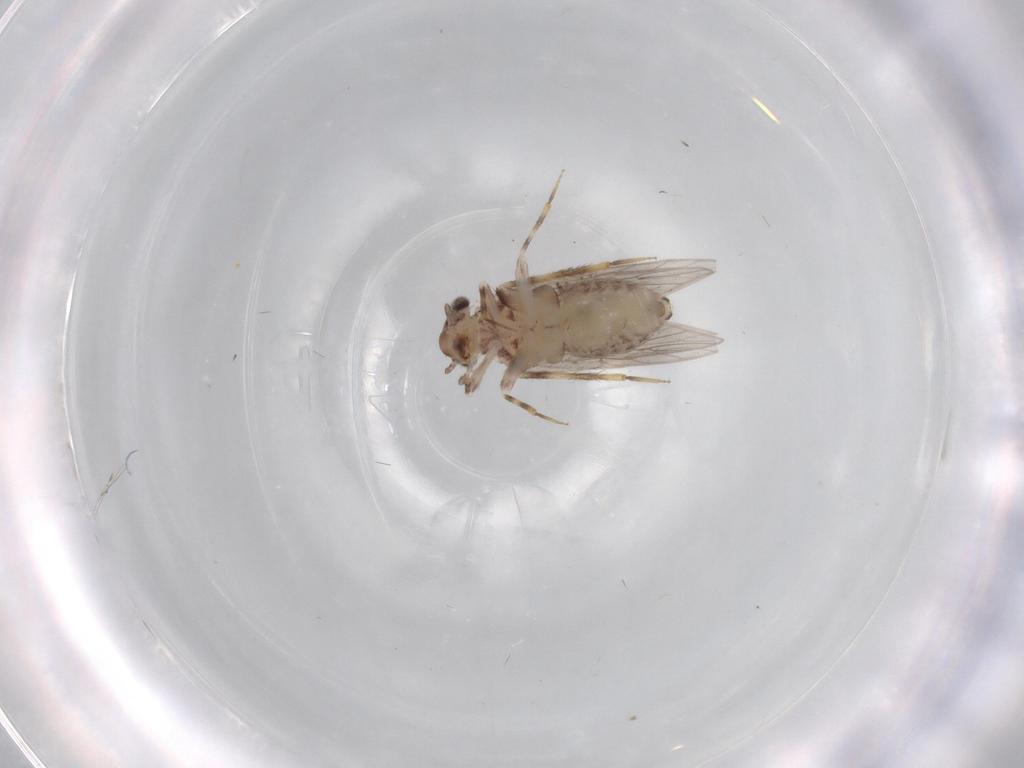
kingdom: Animalia
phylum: Arthropoda
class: Insecta
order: Psocodea
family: Lepidopsocidae
